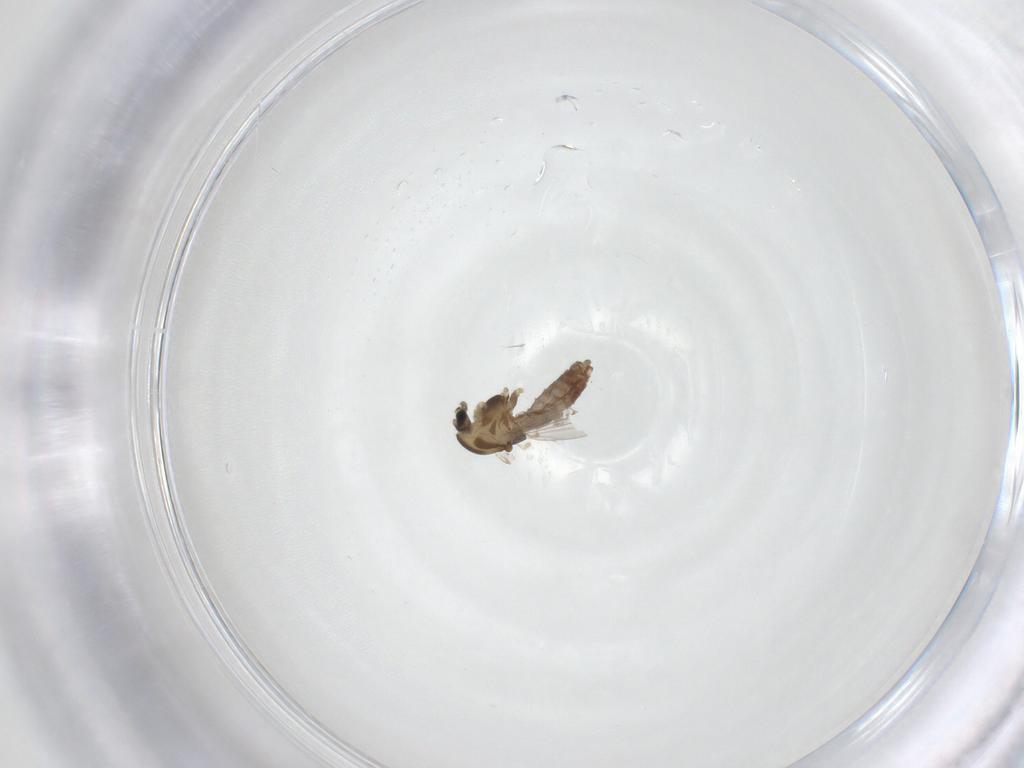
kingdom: Animalia
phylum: Arthropoda
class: Insecta
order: Diptera
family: Chironomidae
